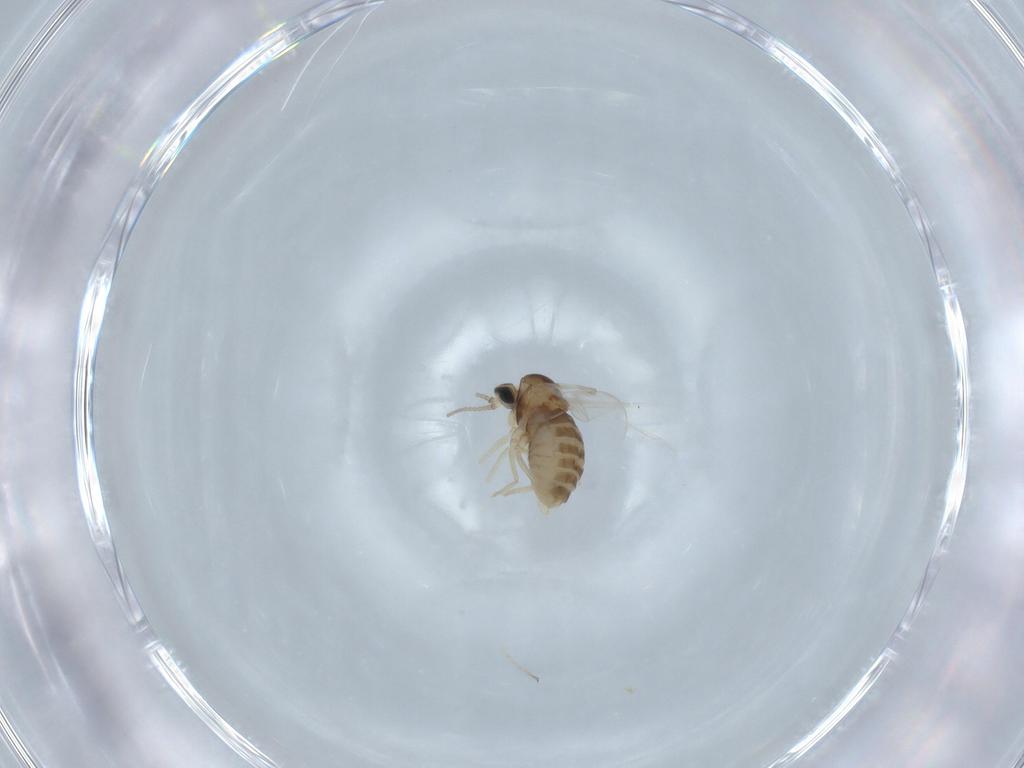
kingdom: Animalia
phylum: Arthropoda
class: Insecta
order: Diptera
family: Cecidomyiidae
